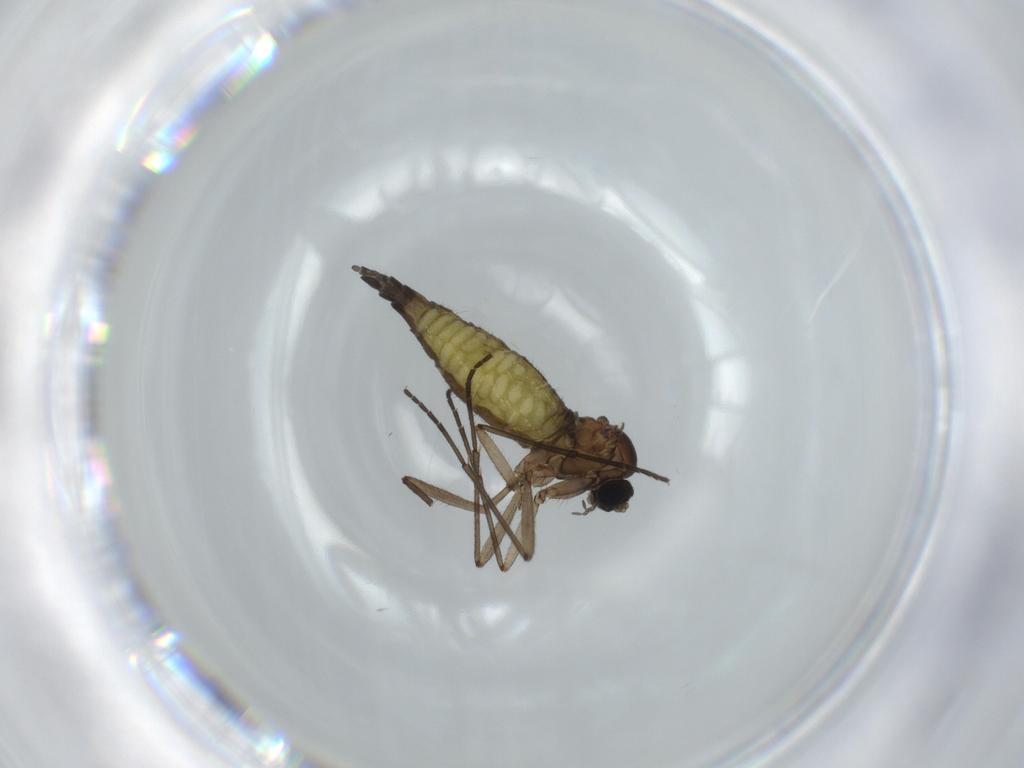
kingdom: Animalia
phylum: Arthropoda
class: Insecta
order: Diptera
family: Sciaridae
